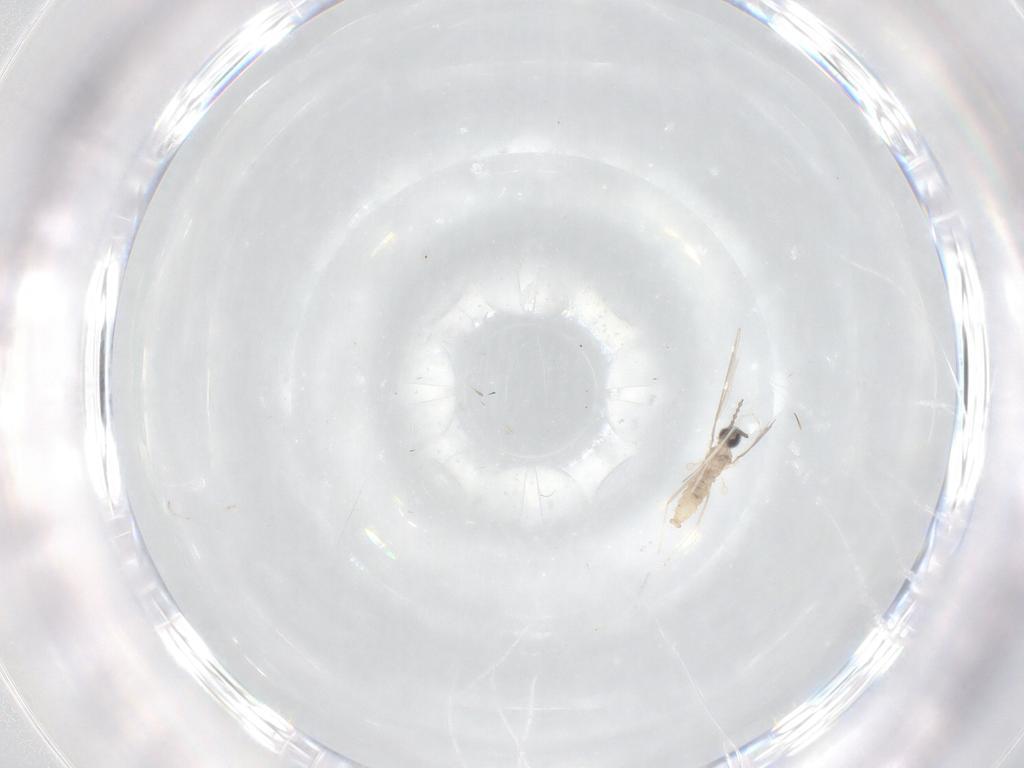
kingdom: Animalia
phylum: Arthropoda
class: Insecta
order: Diptera
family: Cecidomyiidae
